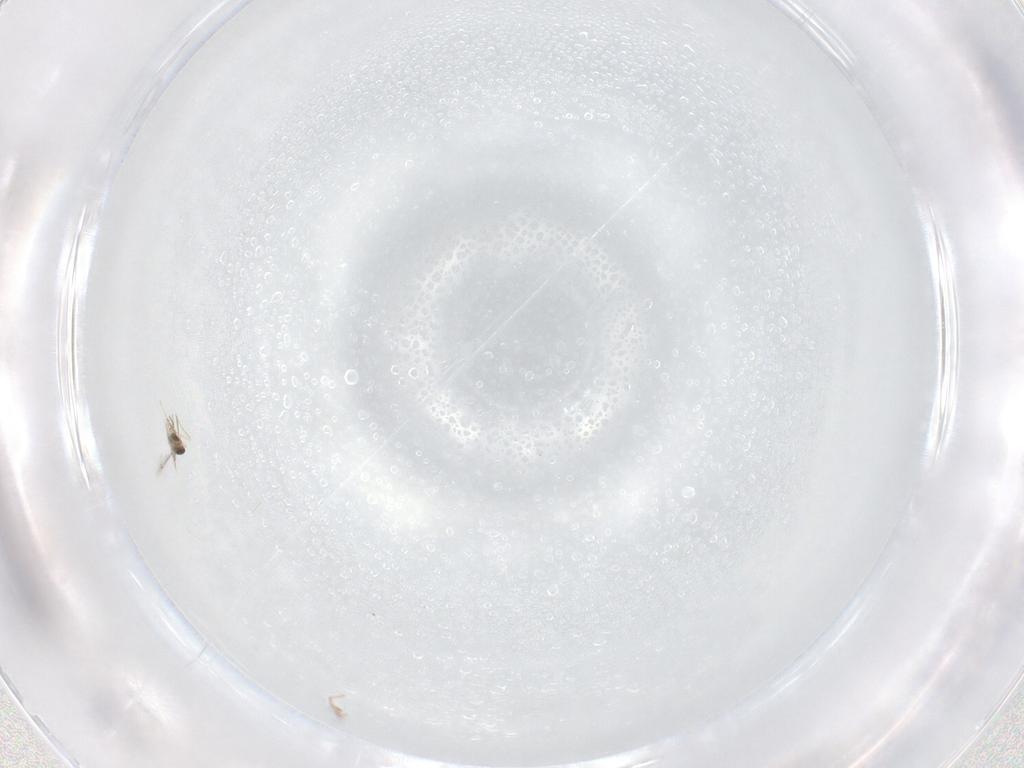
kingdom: Animalia
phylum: Arthropoda
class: Insecta
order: Hymenoptera
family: Mymaridae
